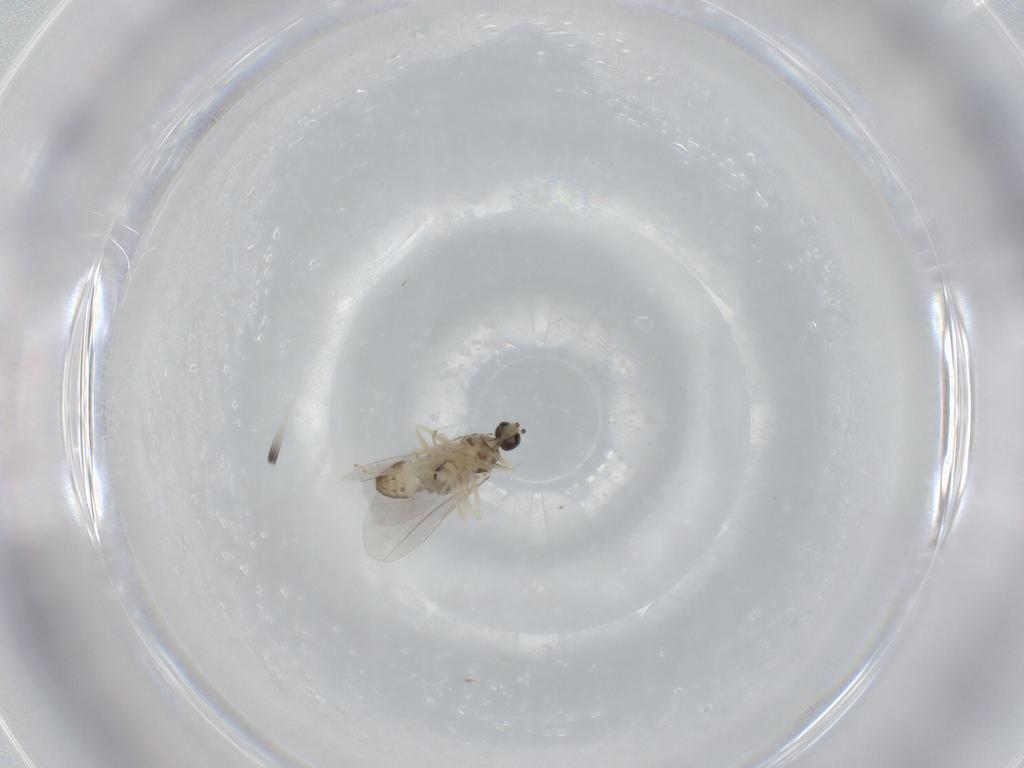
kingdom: Animalia
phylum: Arthropoda
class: Insecta
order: Diptera
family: Cecidomyiidae
